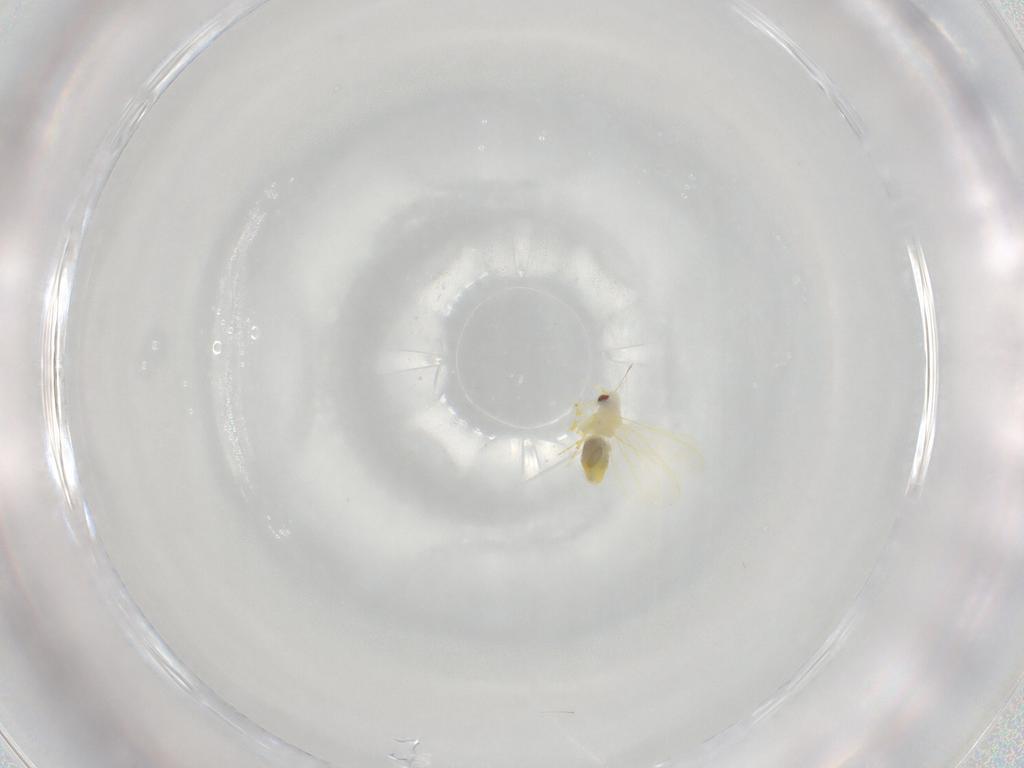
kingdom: Animalia
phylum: Arthropoda
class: Insecta
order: Hemiptera
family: Aleyrodidae
